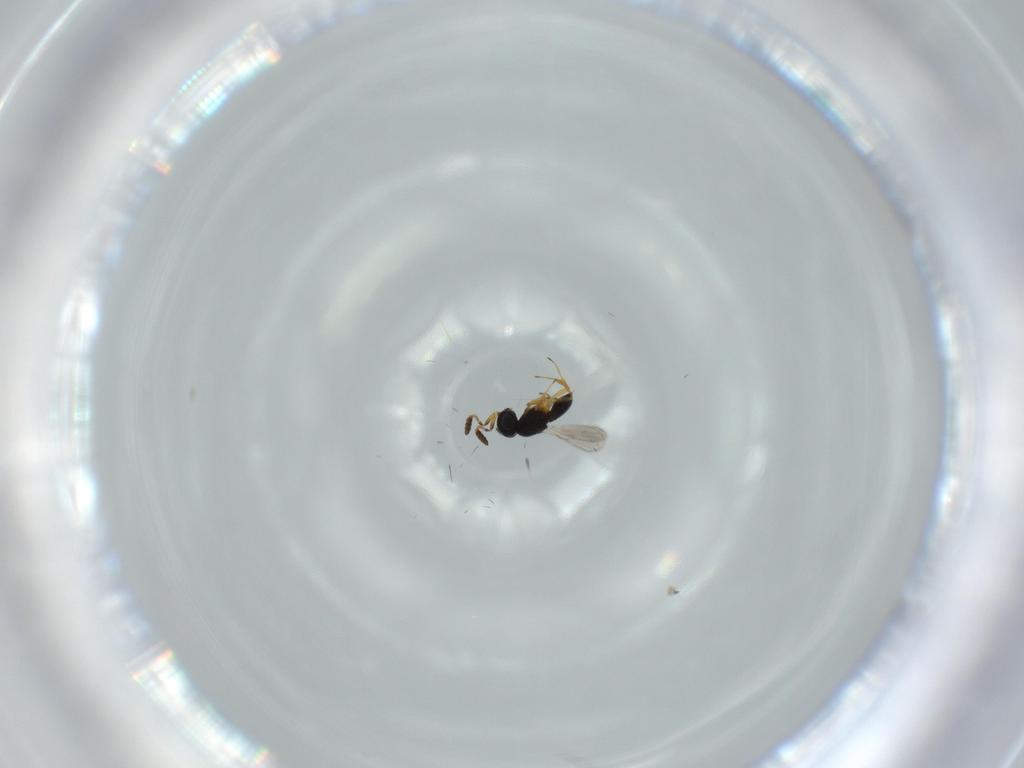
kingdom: Animalia
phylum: Arthropoda
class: Insecta
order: Hymenoptera
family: Scelionidae
